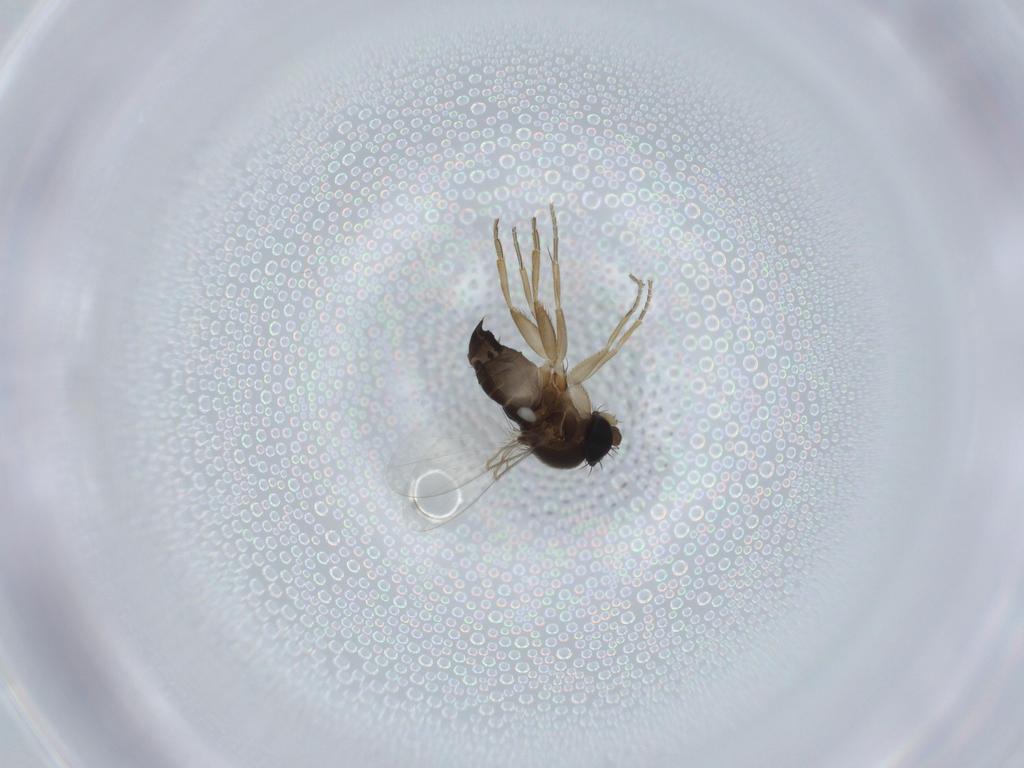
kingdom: Animalia
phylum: Arthropoda
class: Insecta
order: Diptera
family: Phoridae
